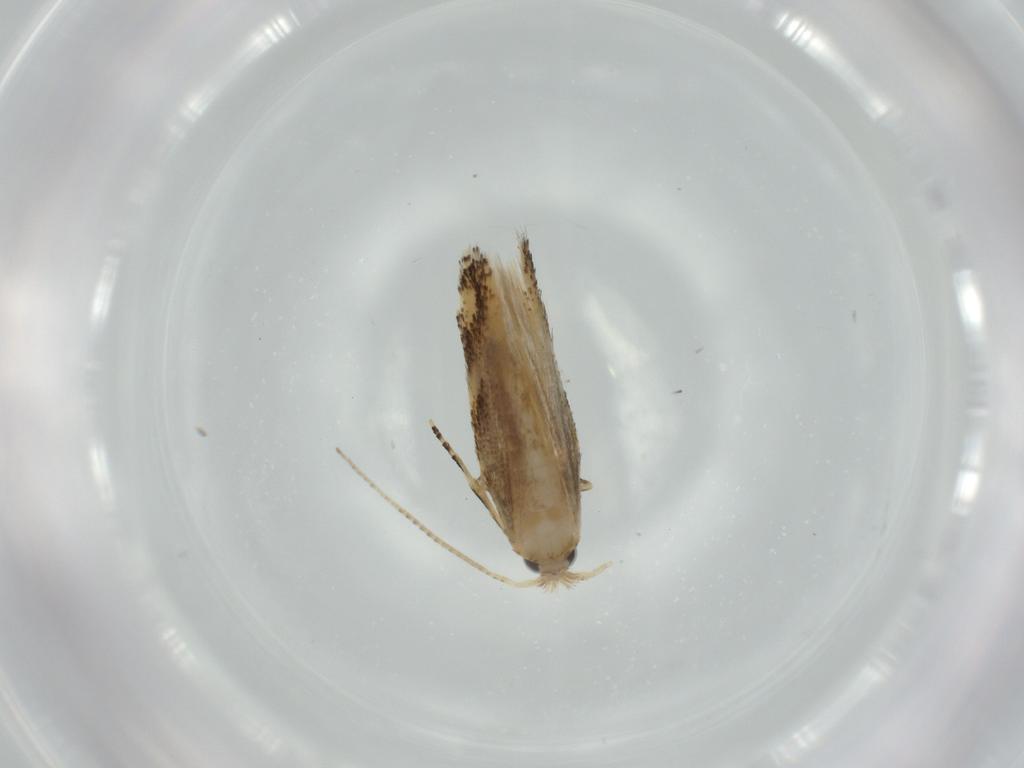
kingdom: Animalia
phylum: Arthropoda
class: Insecta
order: Lepidoptera
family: Bucculatricidae
